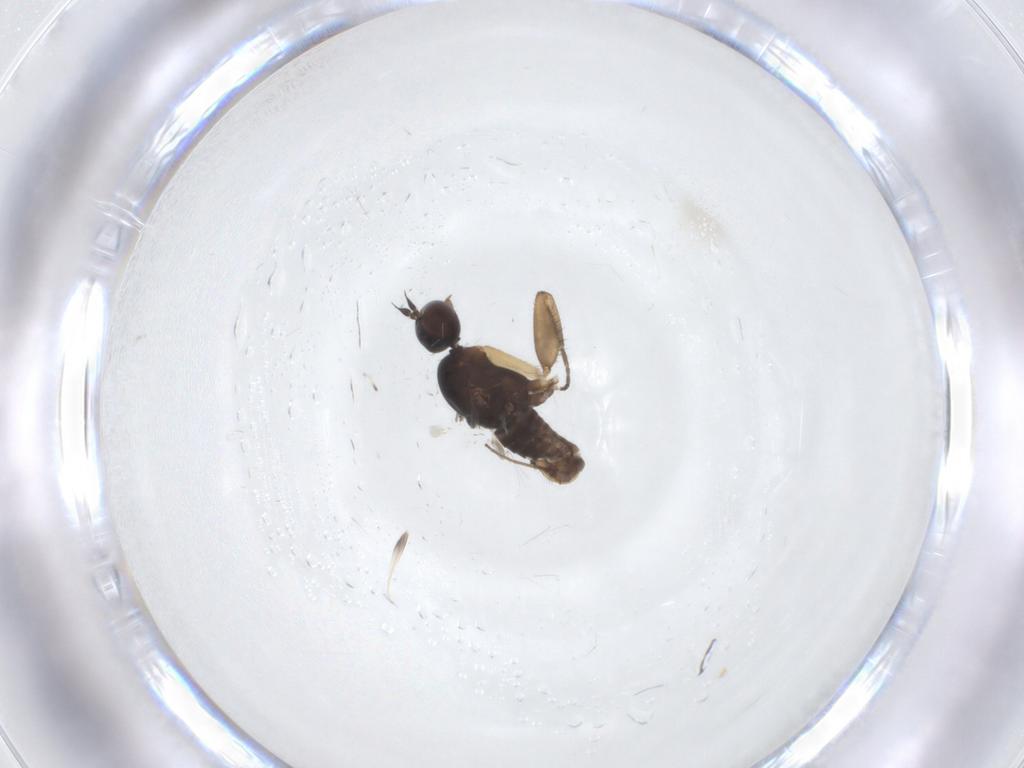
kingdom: Animalia
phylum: Arthropoda
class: Insecta
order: Diptera
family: Empididae
